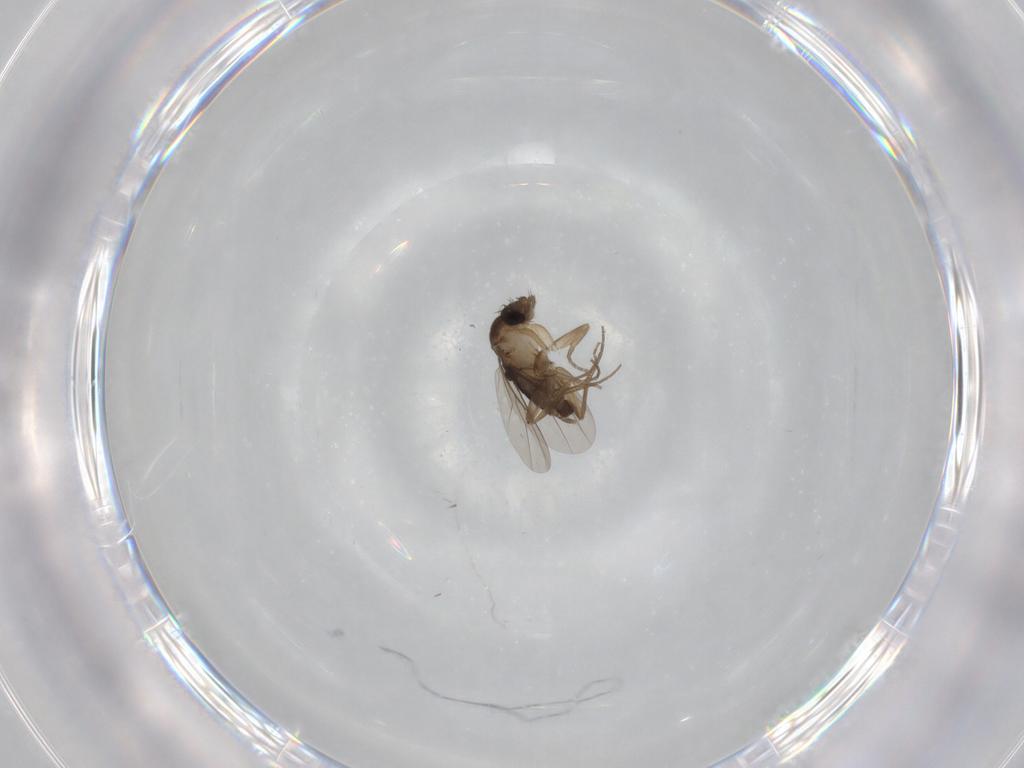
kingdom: Animalia
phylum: Arthropoda
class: Insecta
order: Diptera
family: Phoridae
